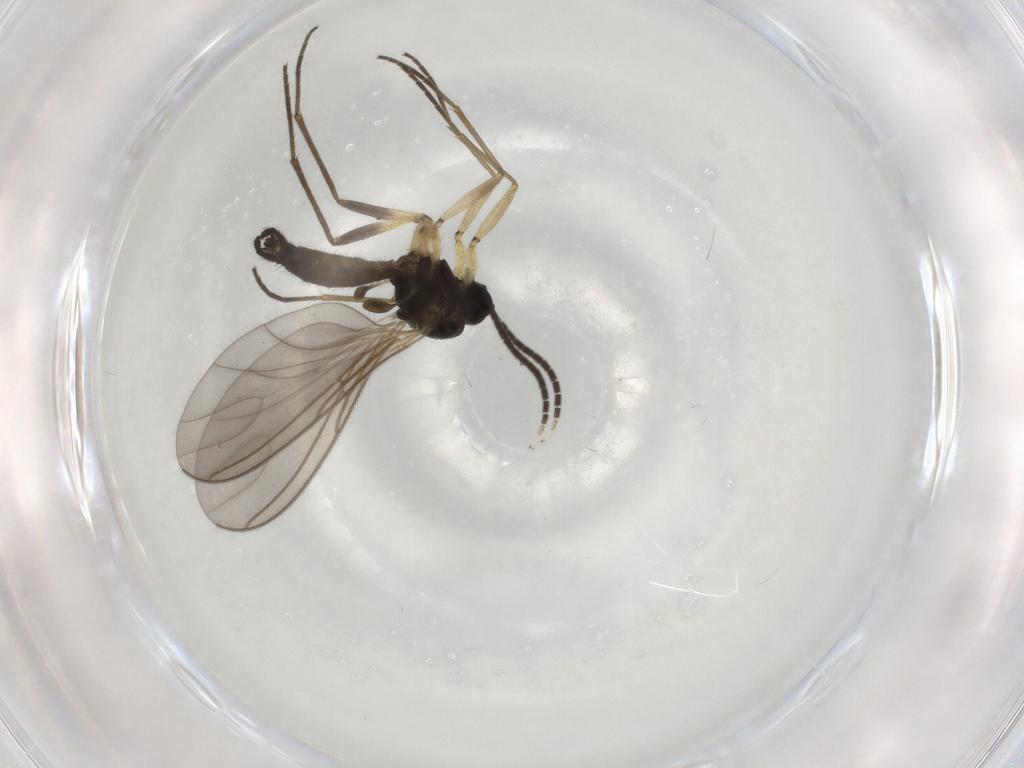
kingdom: Animalia
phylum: Arthropoda
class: Insecta
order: Diptera
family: Sciaridae
